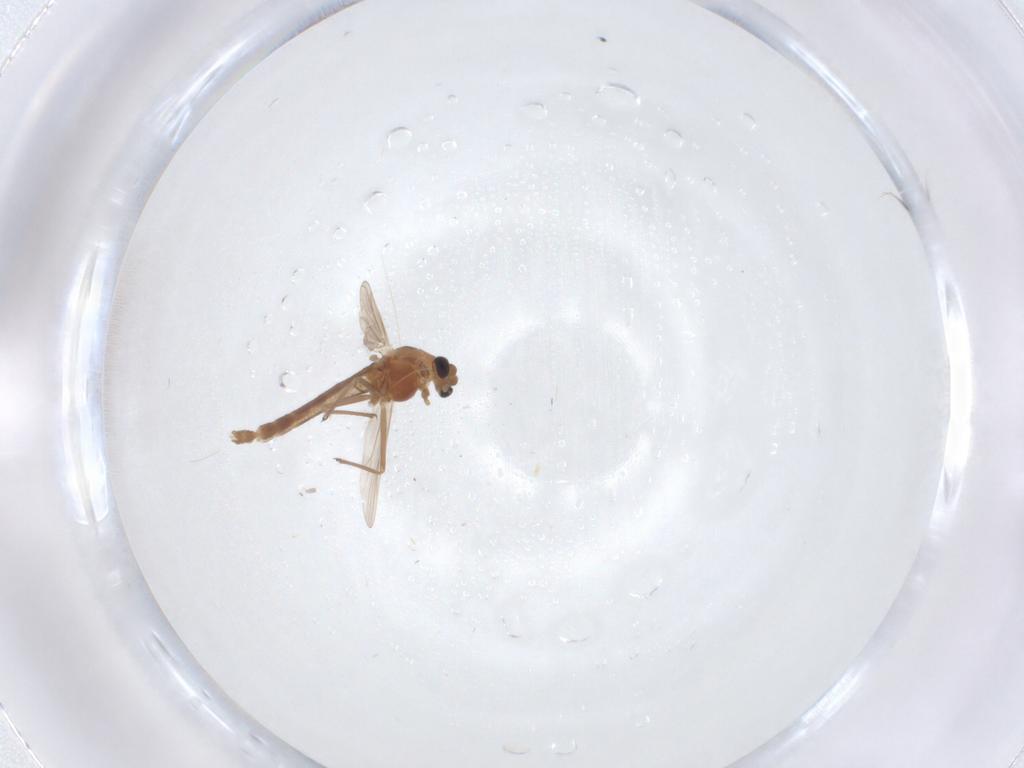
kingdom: Animalia
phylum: Arthropoda
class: Insecta
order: Diptera
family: Chironomidae
